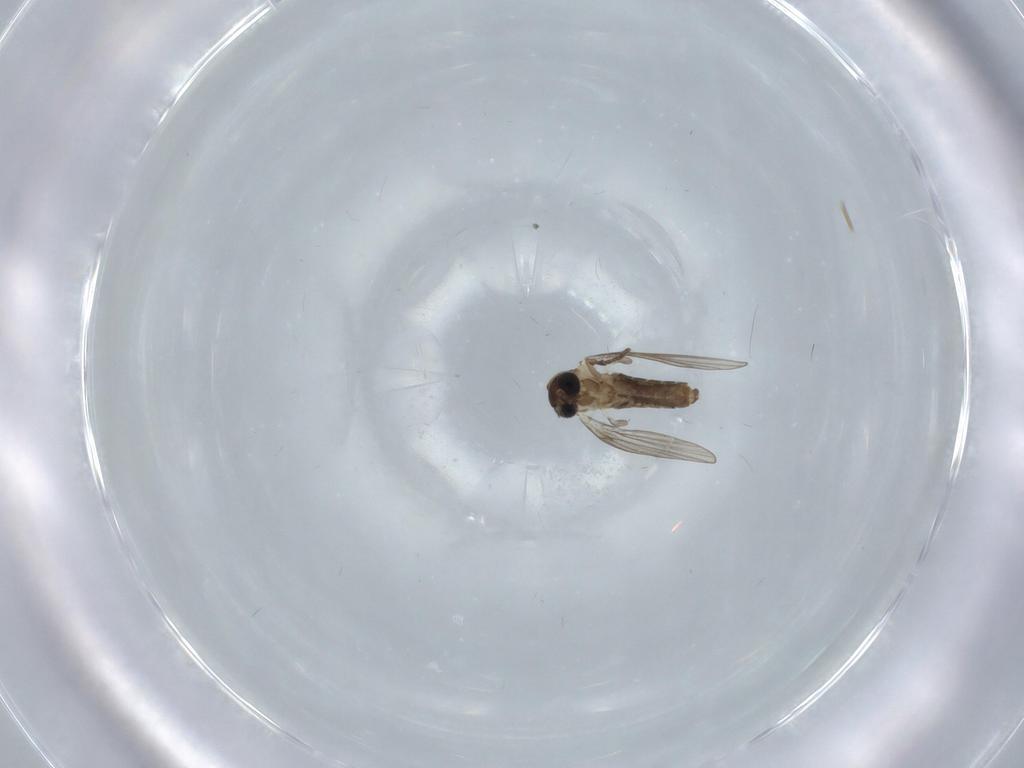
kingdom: Animalia
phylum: Arthropoda
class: Insecta
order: Diptera
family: Psychodidae
